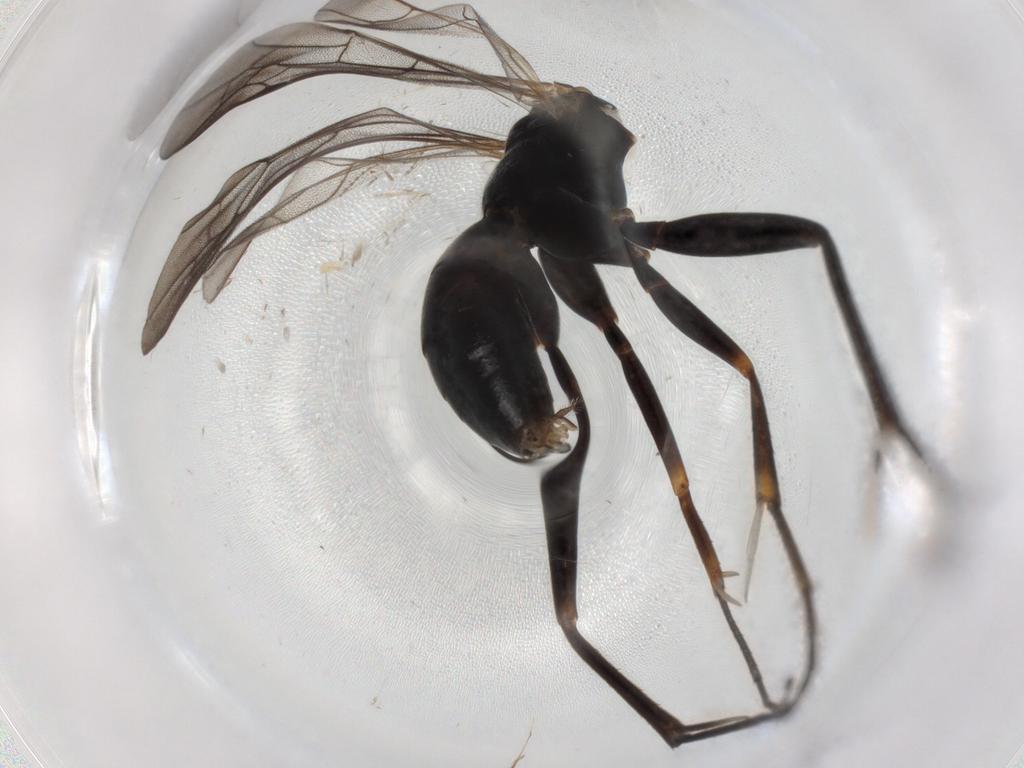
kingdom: Animalia
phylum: Arthropoda
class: Insecta
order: Hymenoptera
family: Pompilidae
